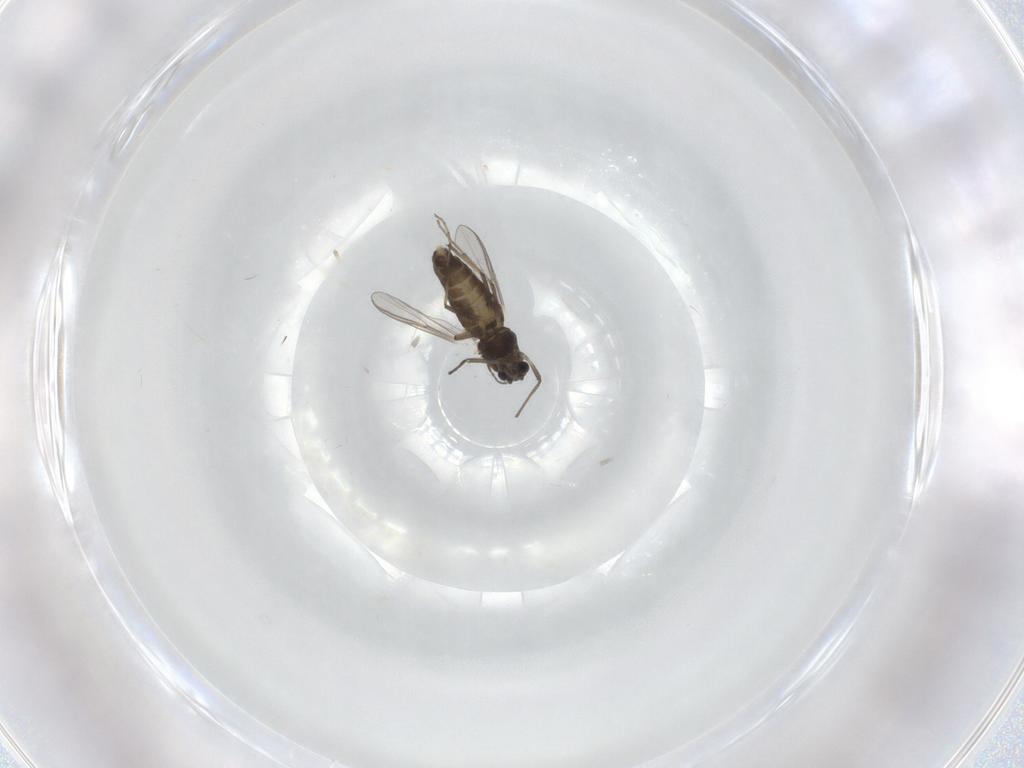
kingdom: Animalia
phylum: Arthropoda
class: Insecta
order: Diptera
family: Chironomidae
